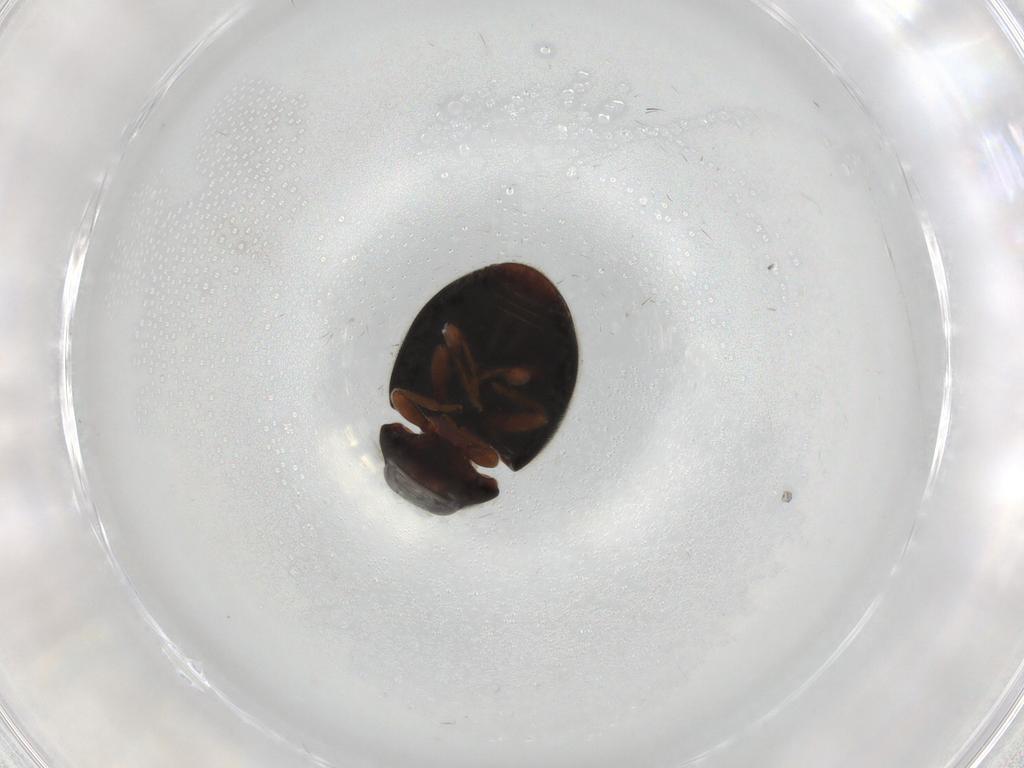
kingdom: Animalia
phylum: Arthropoda
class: Insecta
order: Coleoptera
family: Coccinellidae
